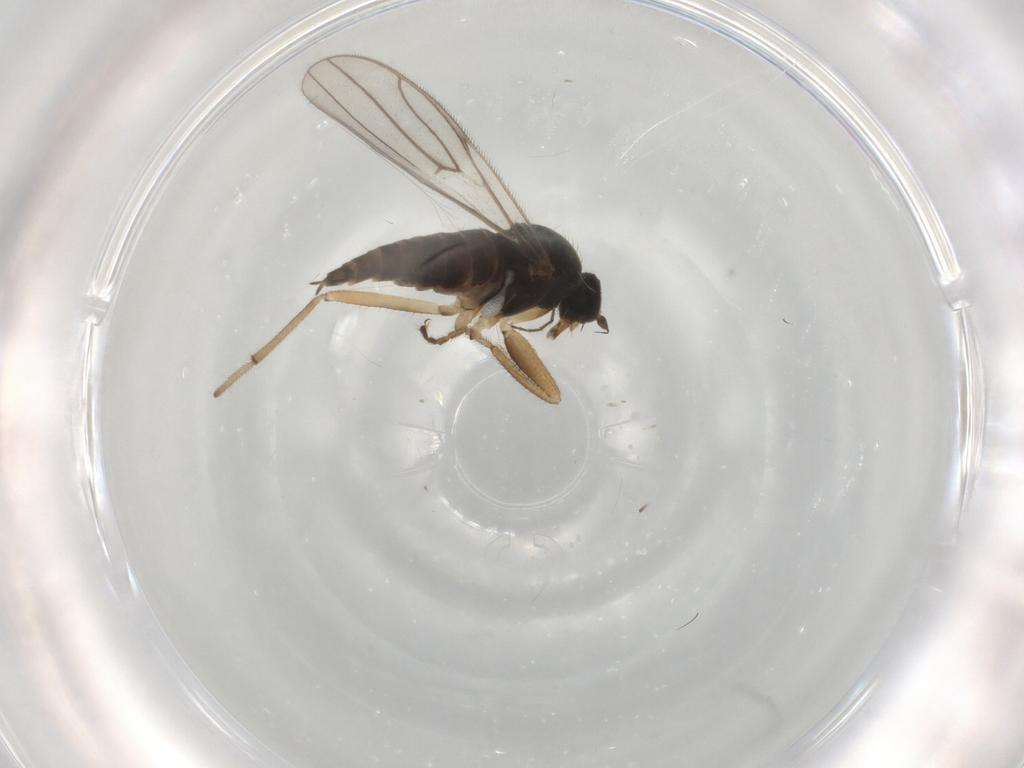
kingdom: Animalia
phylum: Arthropoda
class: Insecta
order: Diptera
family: Hybotidae
